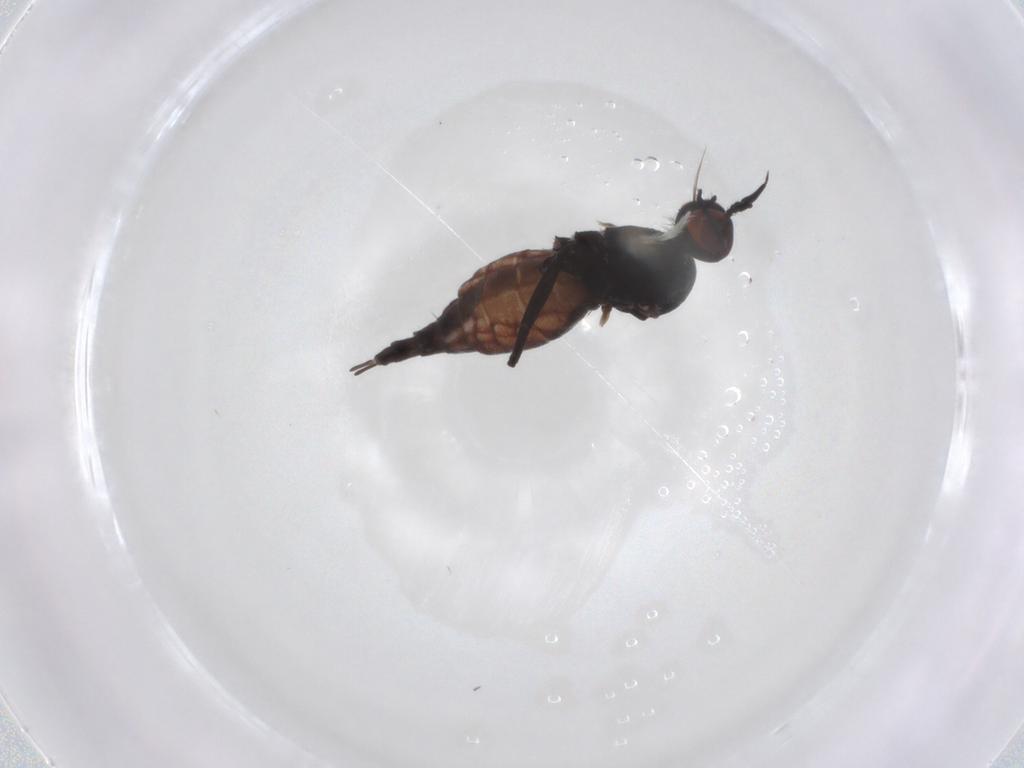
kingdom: Animalia
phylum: Arthropoda
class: Insecta
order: Diptera
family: Empididae
